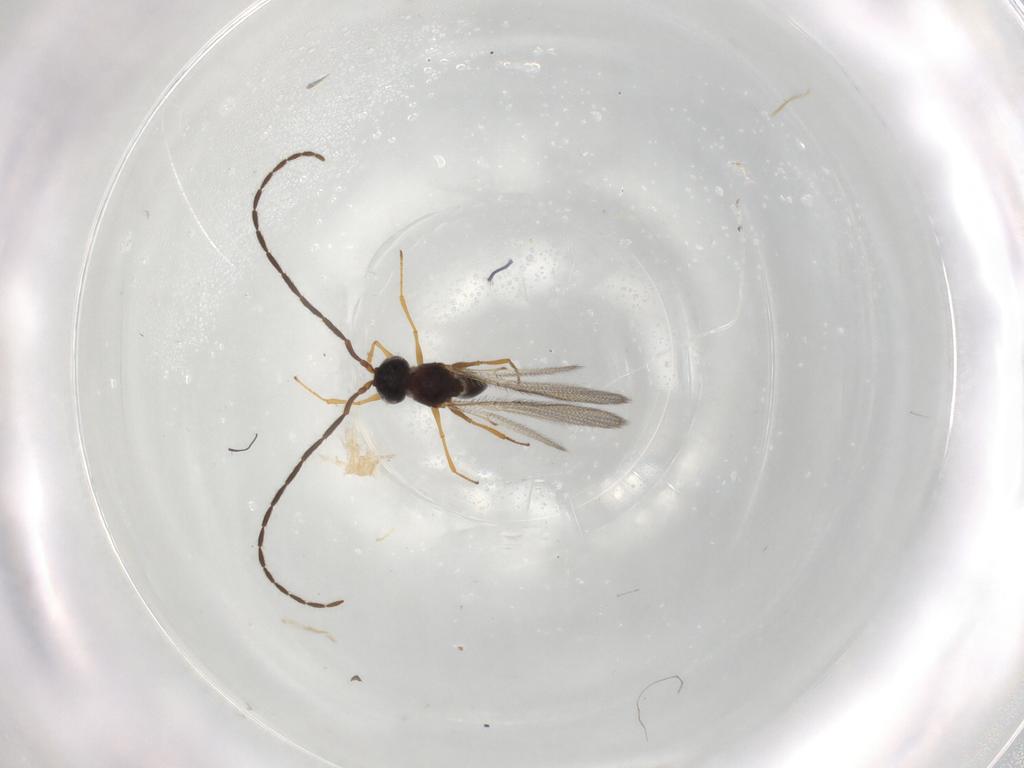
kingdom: Animalia
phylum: Arthropoda
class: Insecta
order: Hymenoptera
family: Figitidae
